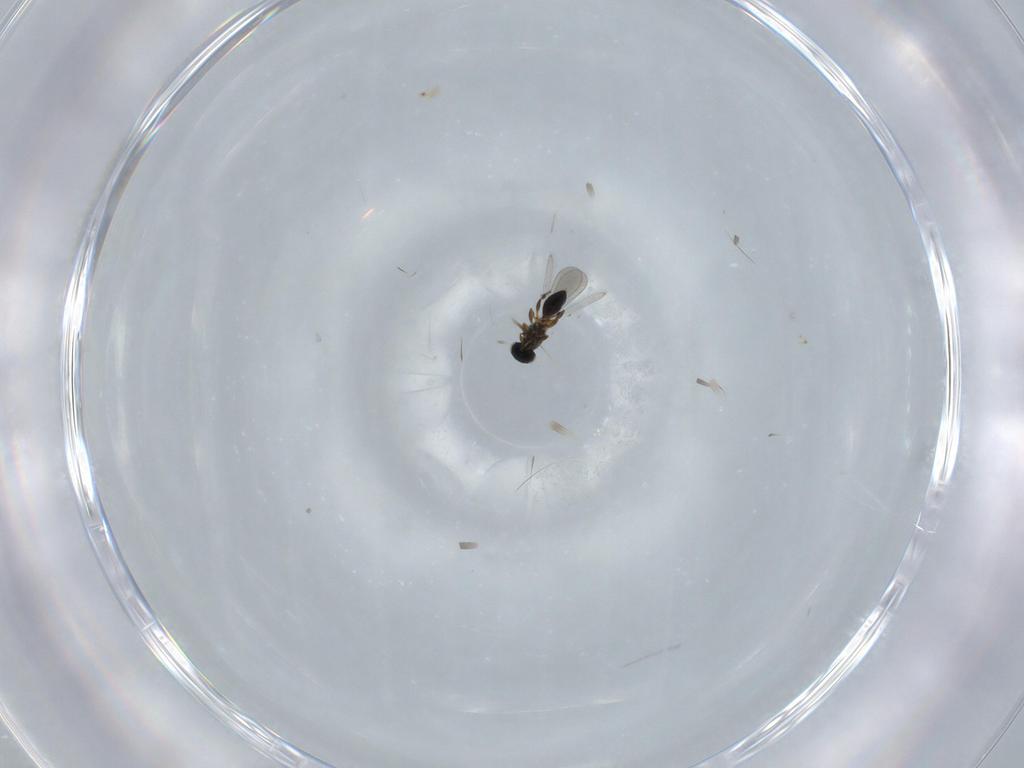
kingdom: Animalia
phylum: Arthropoda
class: Insecta
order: Hymenoptera
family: Platygastridae
